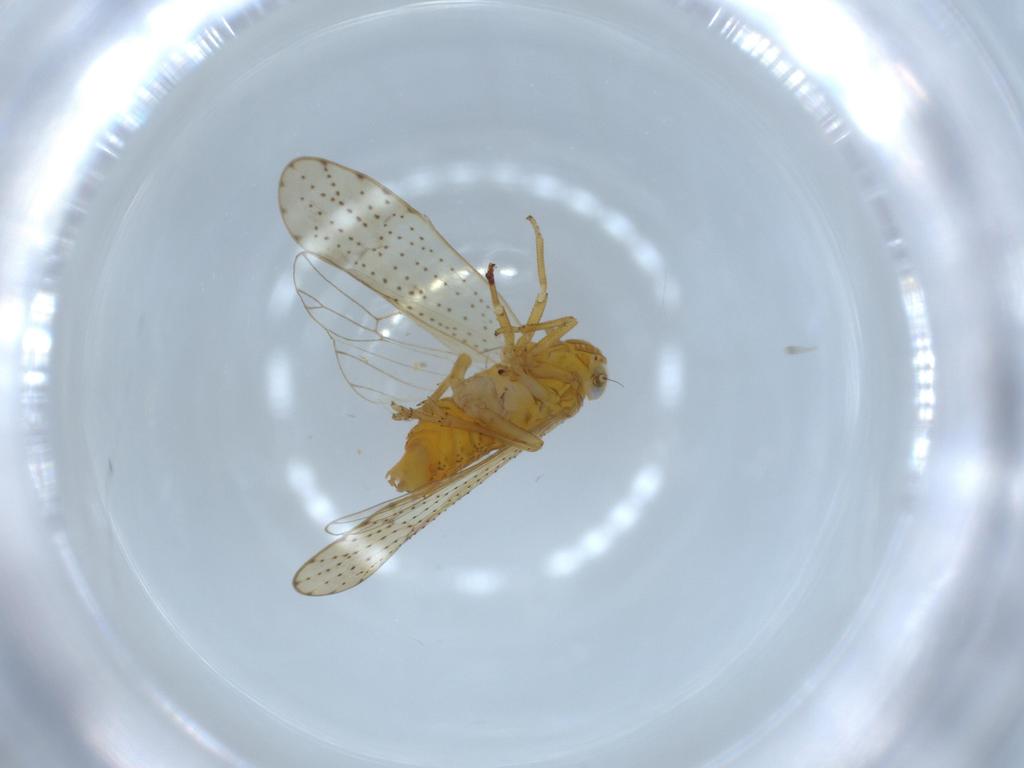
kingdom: Animalia
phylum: Arthropoda
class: Insecta
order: Hemiptera
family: Delphacidae
